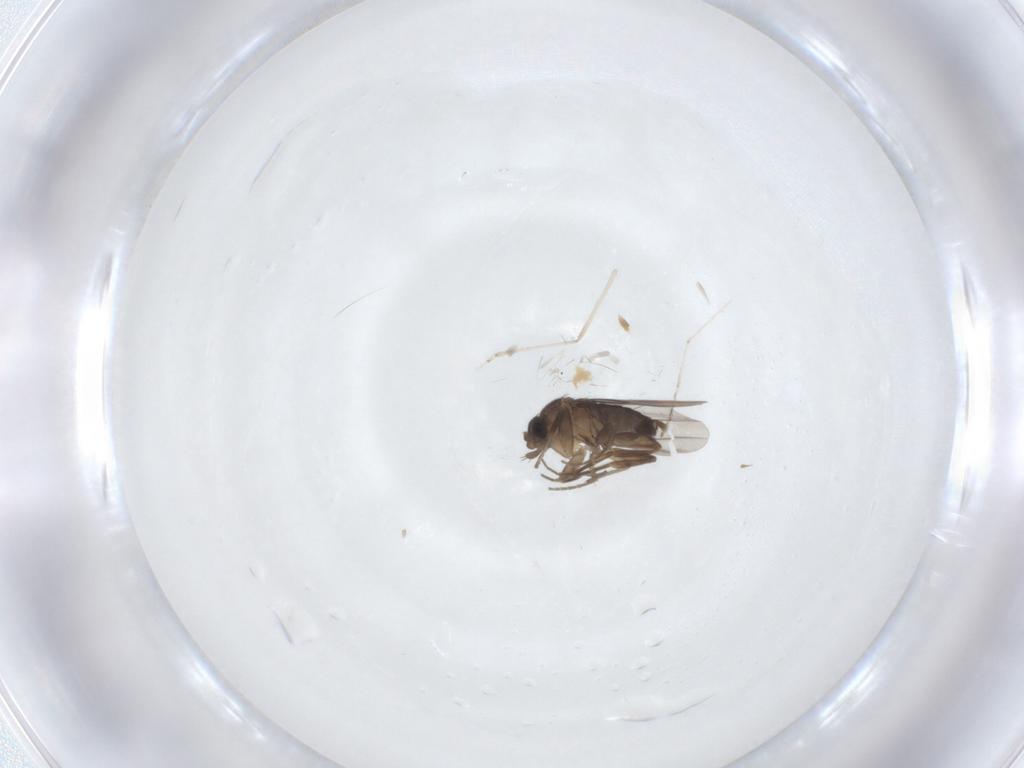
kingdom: Animalia
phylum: Arthropoda
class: Insecta
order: Diptera
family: Phoridae
